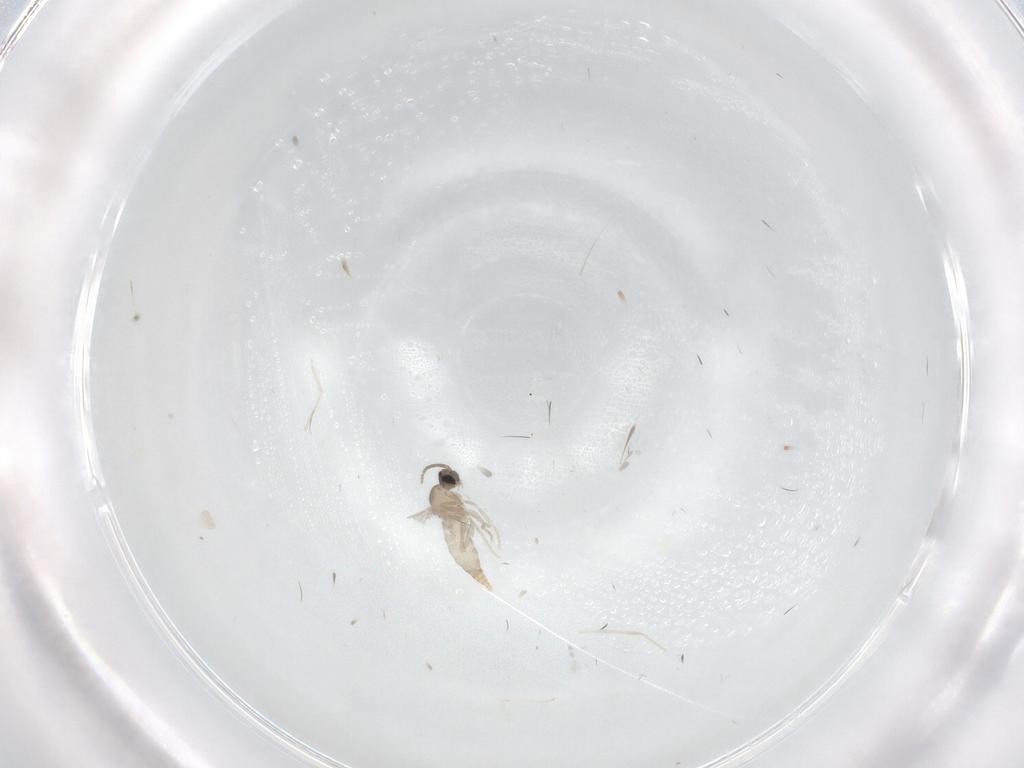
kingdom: Animalia
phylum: Arthropoda
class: Insecta
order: Diptera
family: Cecidomyiidae
